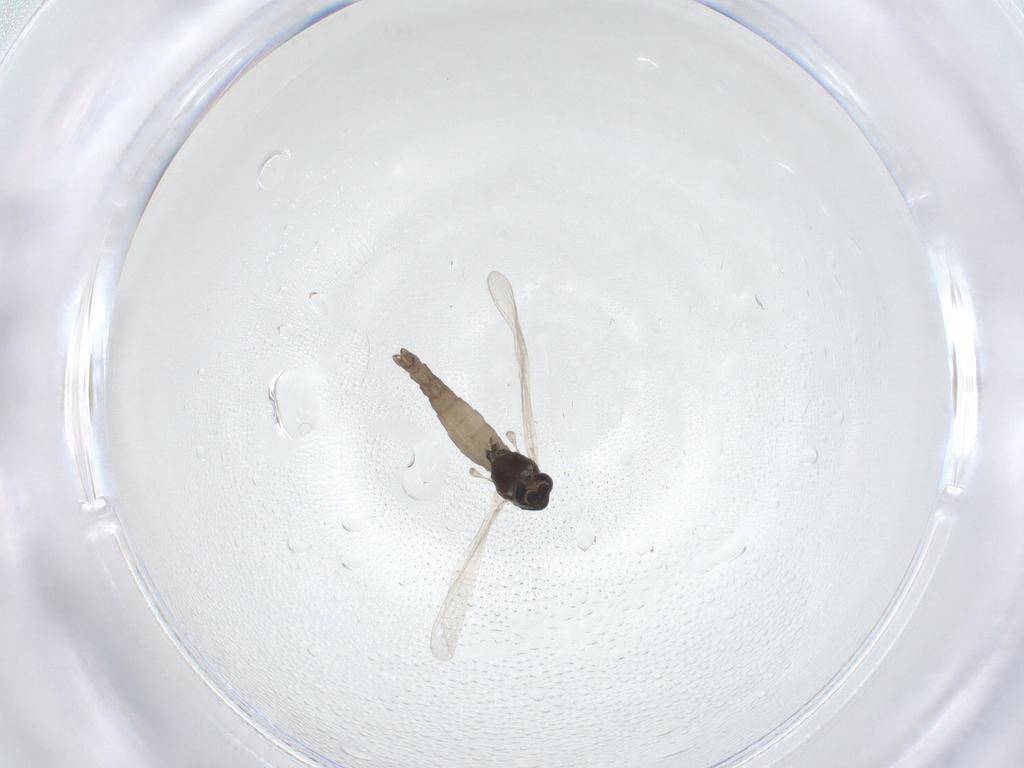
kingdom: Animalia
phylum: Arthropoda
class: Insecta
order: Diptera
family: Chironomidae
